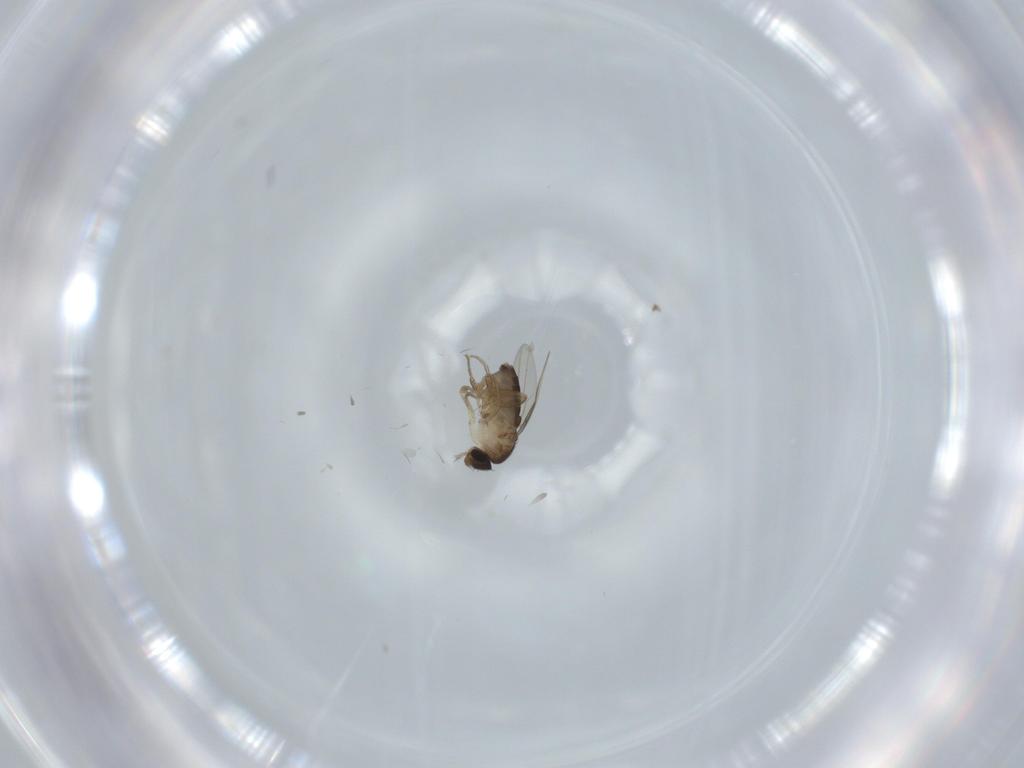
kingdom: Animalia
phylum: Arthropoda
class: Insecta
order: Diptera
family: Phoridae
